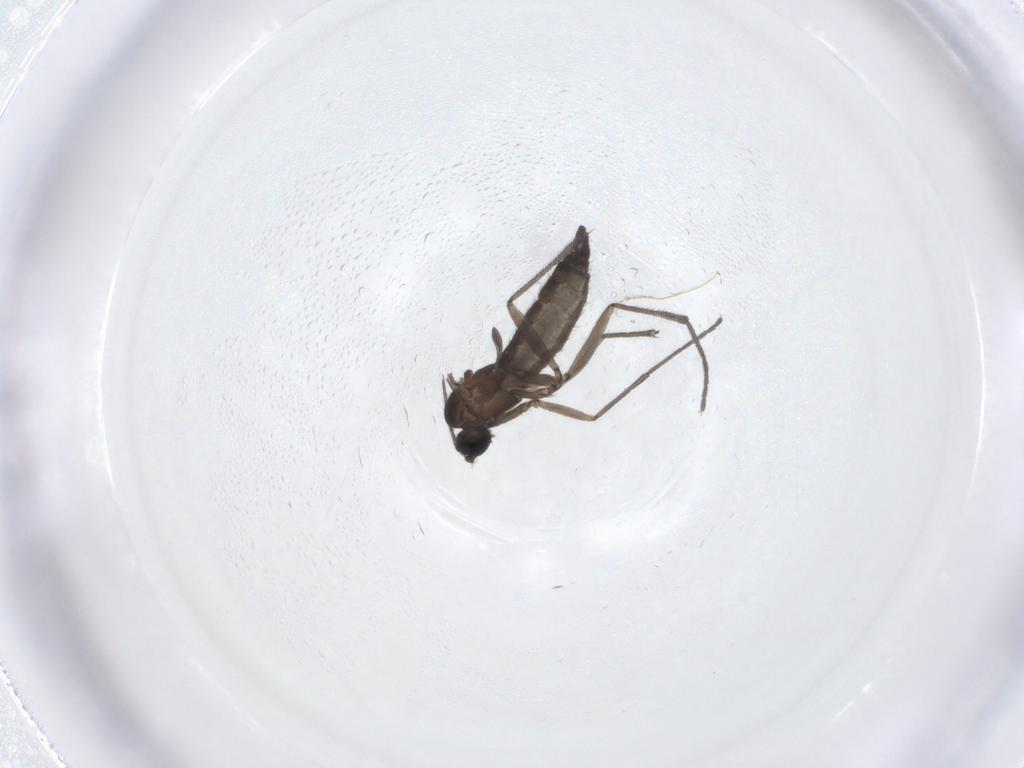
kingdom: Animalia
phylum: Arthropoda
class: Insecta
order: Diptera
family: Sciaridae
